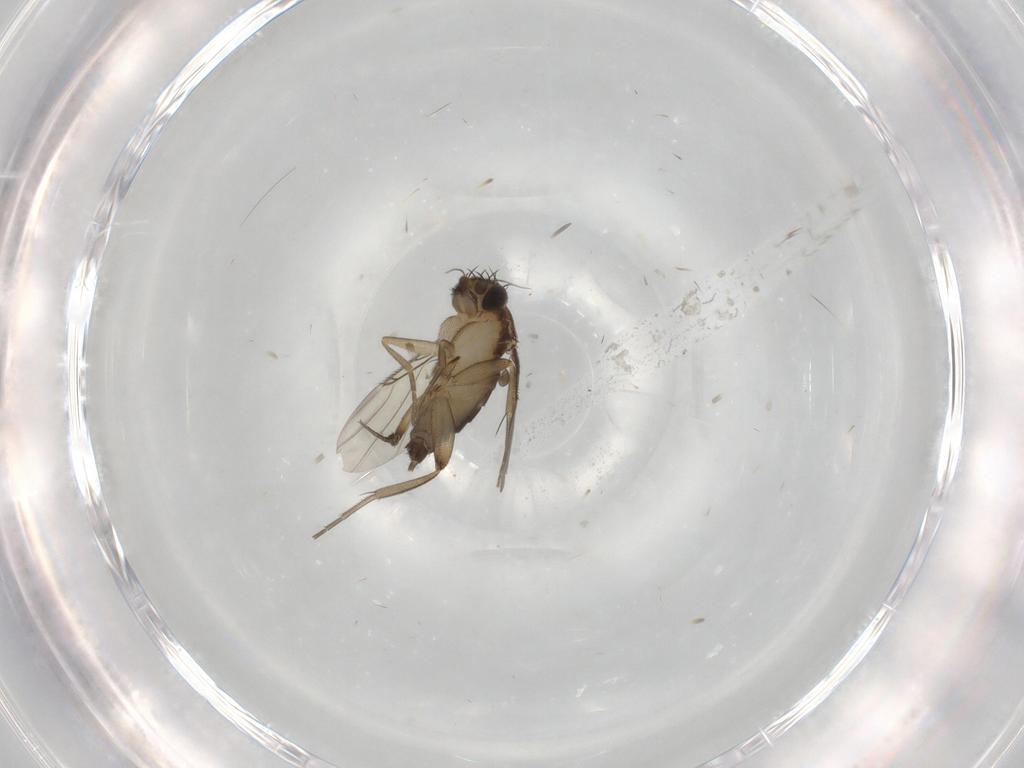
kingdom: Animalia
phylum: Arthropoda
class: Insecta
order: Diptera
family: Phoridae
